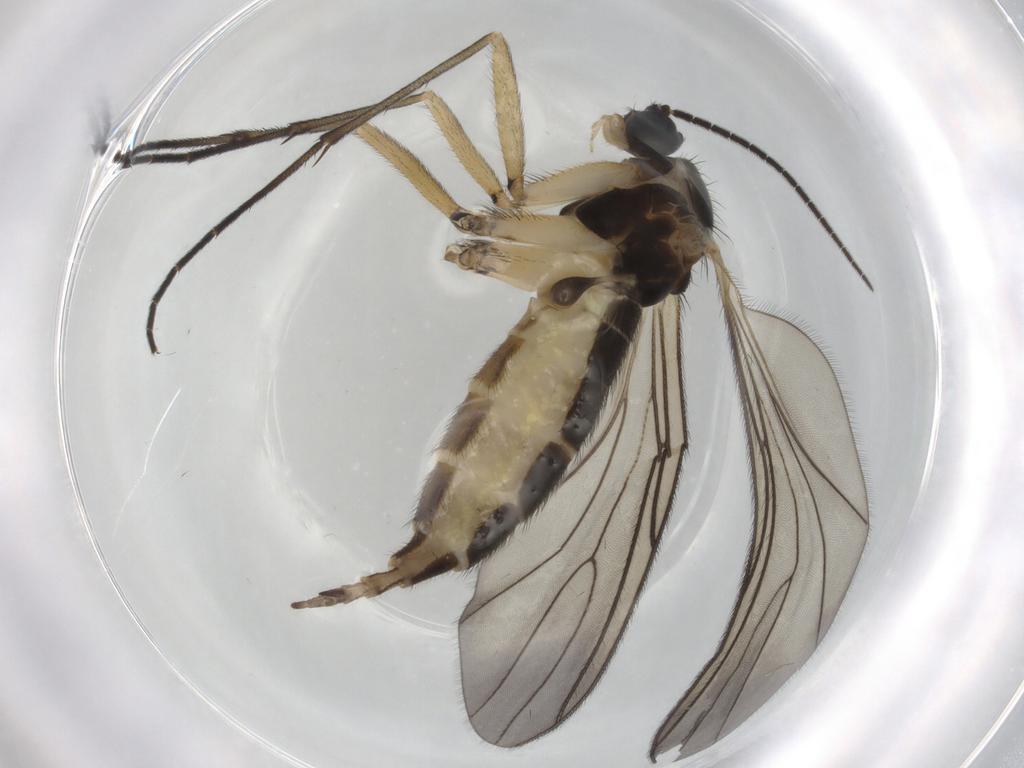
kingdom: Animalia
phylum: Arthropoda
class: Insecta
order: Diptera
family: Sciaridae
